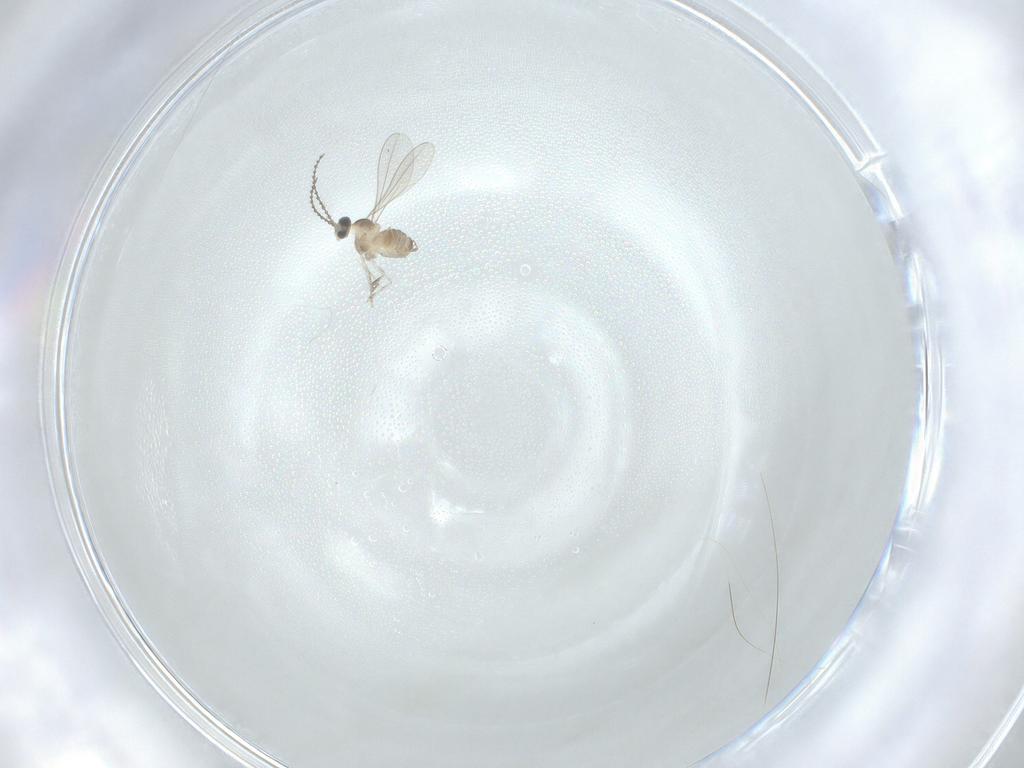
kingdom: Animalia
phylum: Arthropoda
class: Insecta
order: Diptera
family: Cecidomyiidae
